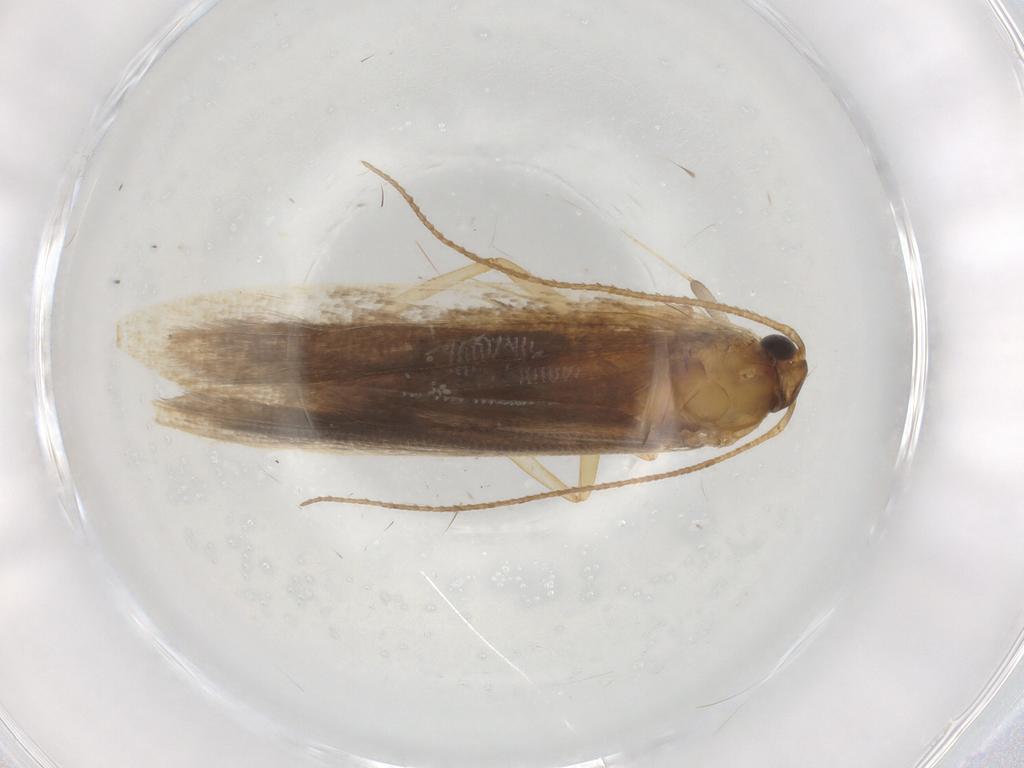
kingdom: Animalia
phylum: Arthropoda
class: Insecta
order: Lepidoptera
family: Gelechiidae
